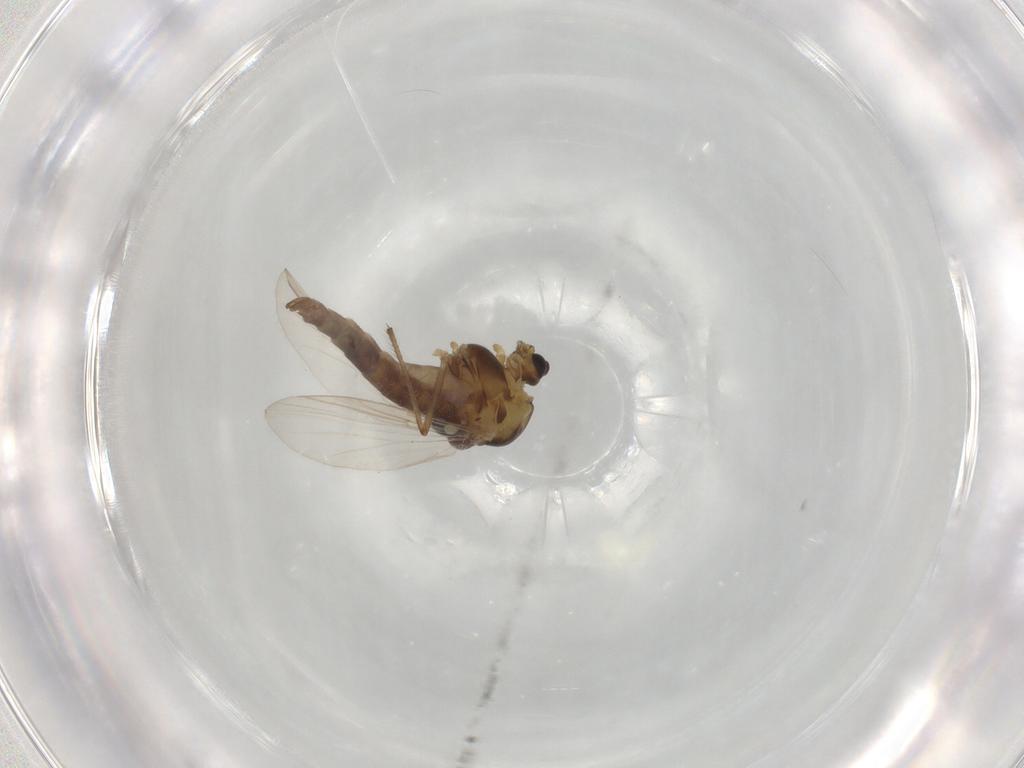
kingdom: Animalia
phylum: Arthropoda
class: Insecta
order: Diptera
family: Chironomidae
